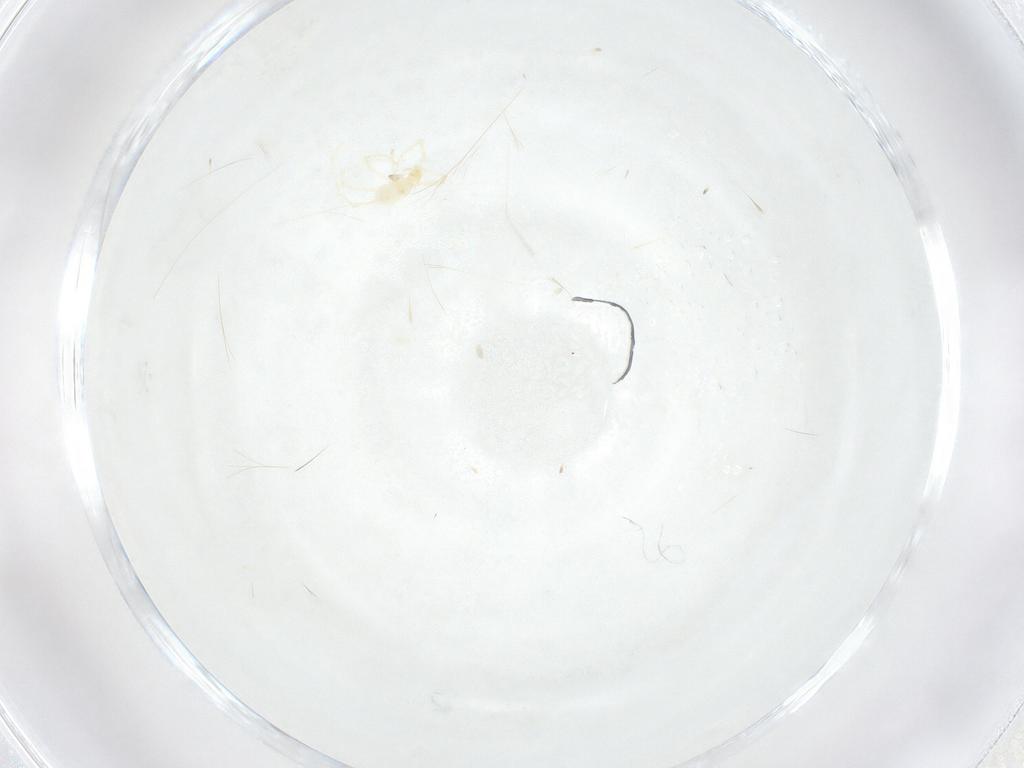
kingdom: Animalia
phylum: Arthropoda
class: Arachnida
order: Trombidiformes
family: Erythraeidae
